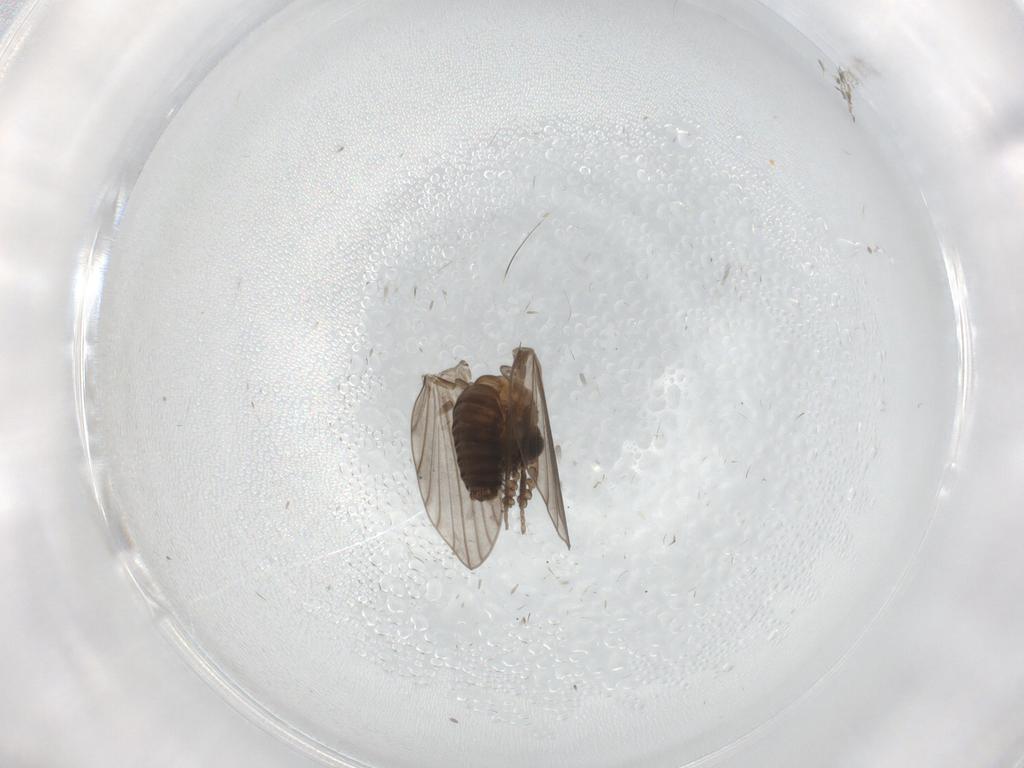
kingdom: Animalia
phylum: Arthropoda
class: Insecta
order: Diptera
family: Psychodidae
